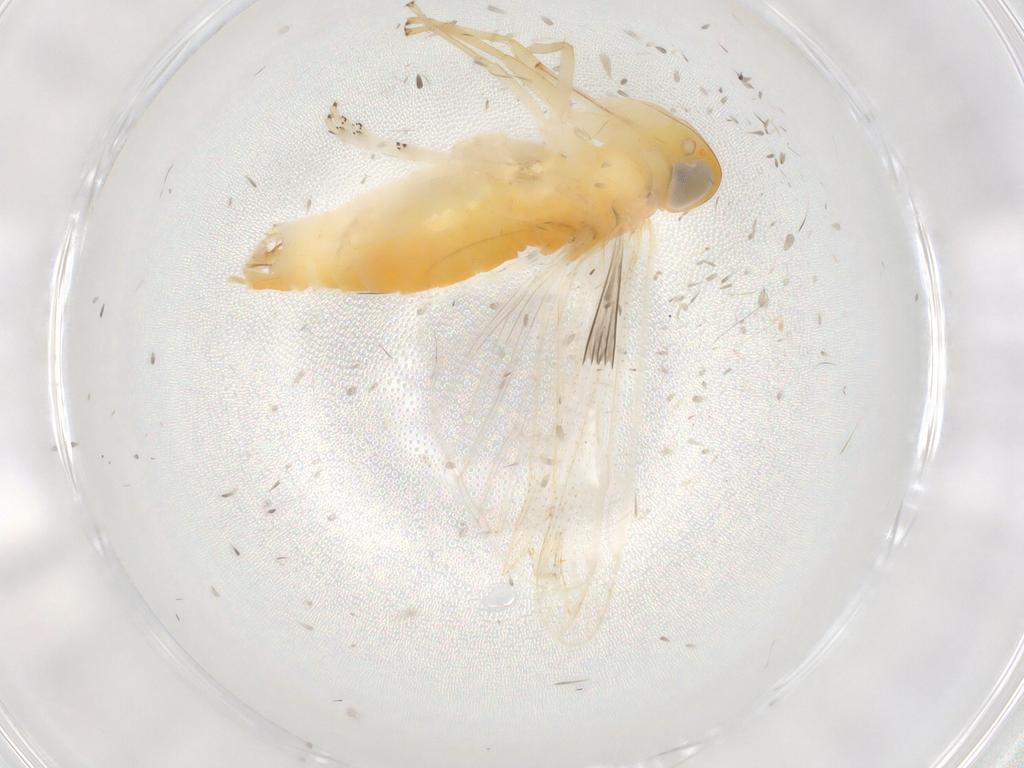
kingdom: Animalia
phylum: Arthropoda
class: Insecta
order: Hemiptera
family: Cixiidae
